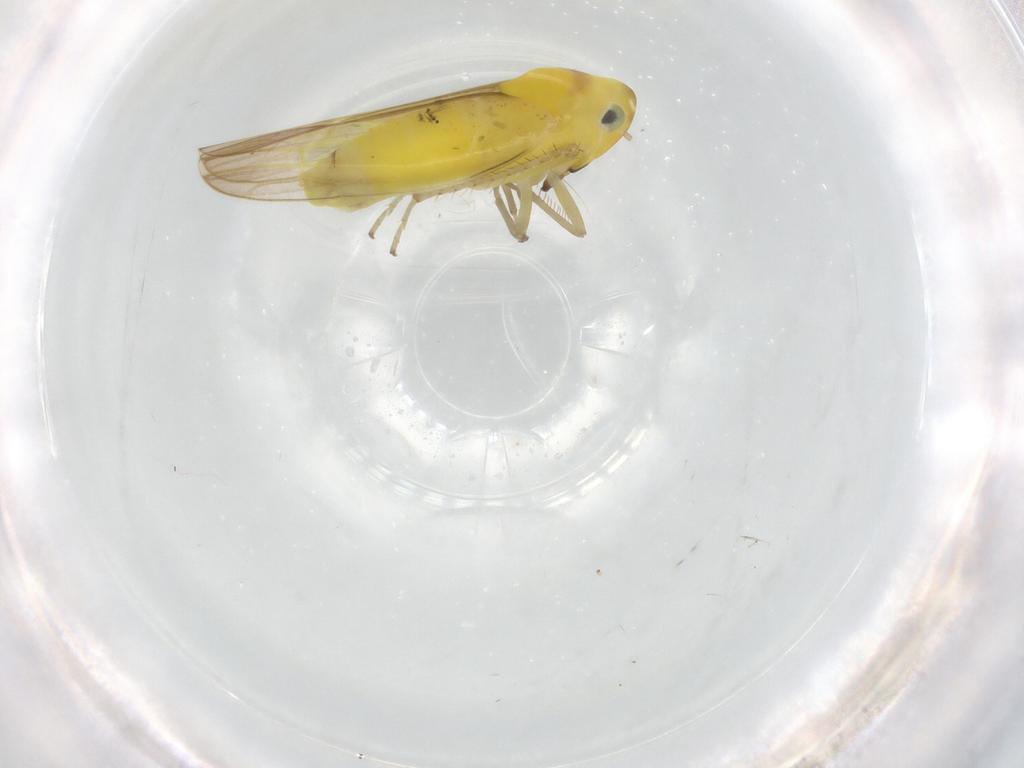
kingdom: Animalia
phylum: Arthropoda
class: Insecta
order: Hemiptera
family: Cicadellidae
